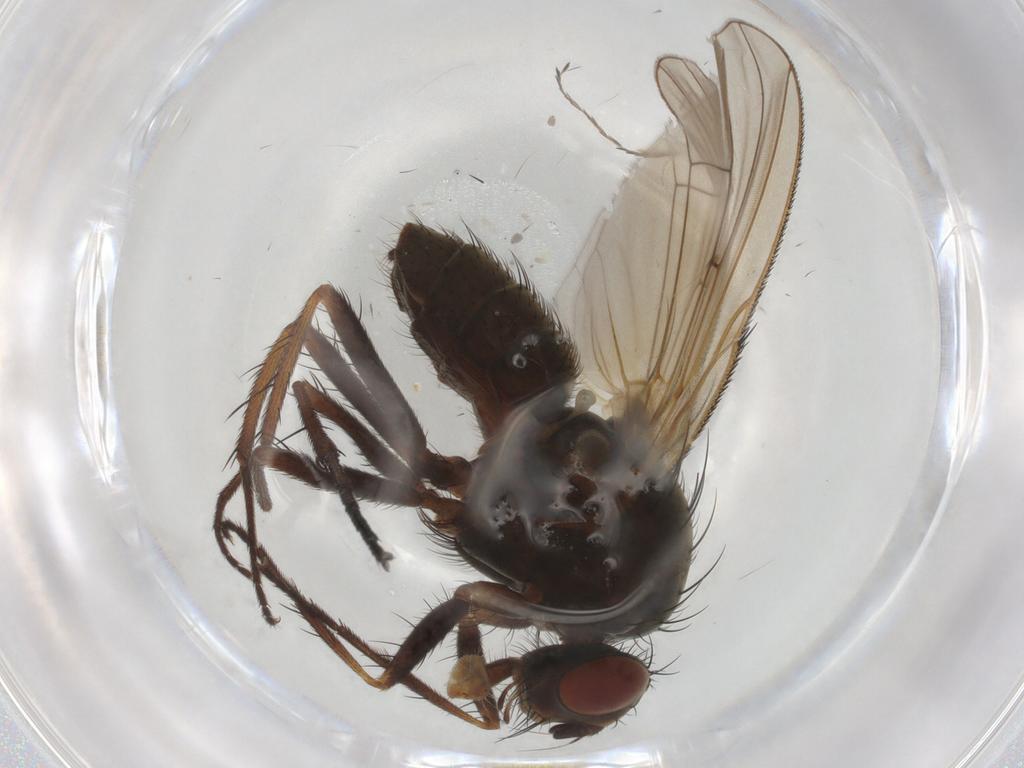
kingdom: Animalia
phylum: Arthropoda
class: Insecta
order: Diptera
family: Anthomyiidae
